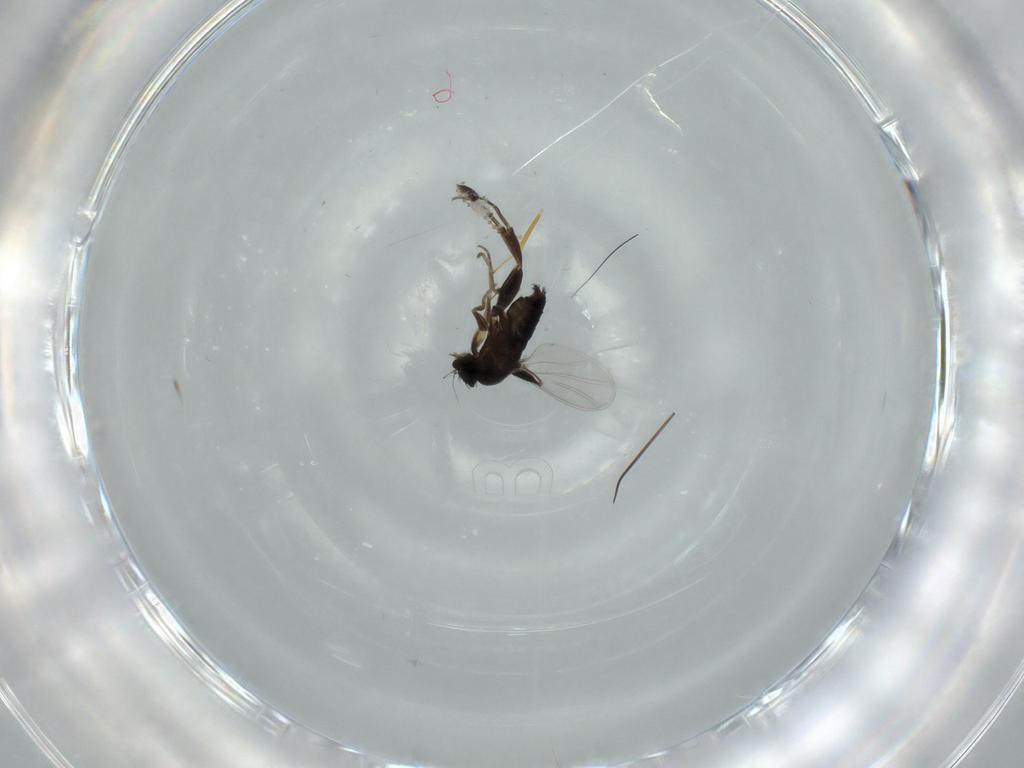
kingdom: Animalia
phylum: Arthropoda
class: Insecta
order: Diptera
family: Phoridae
